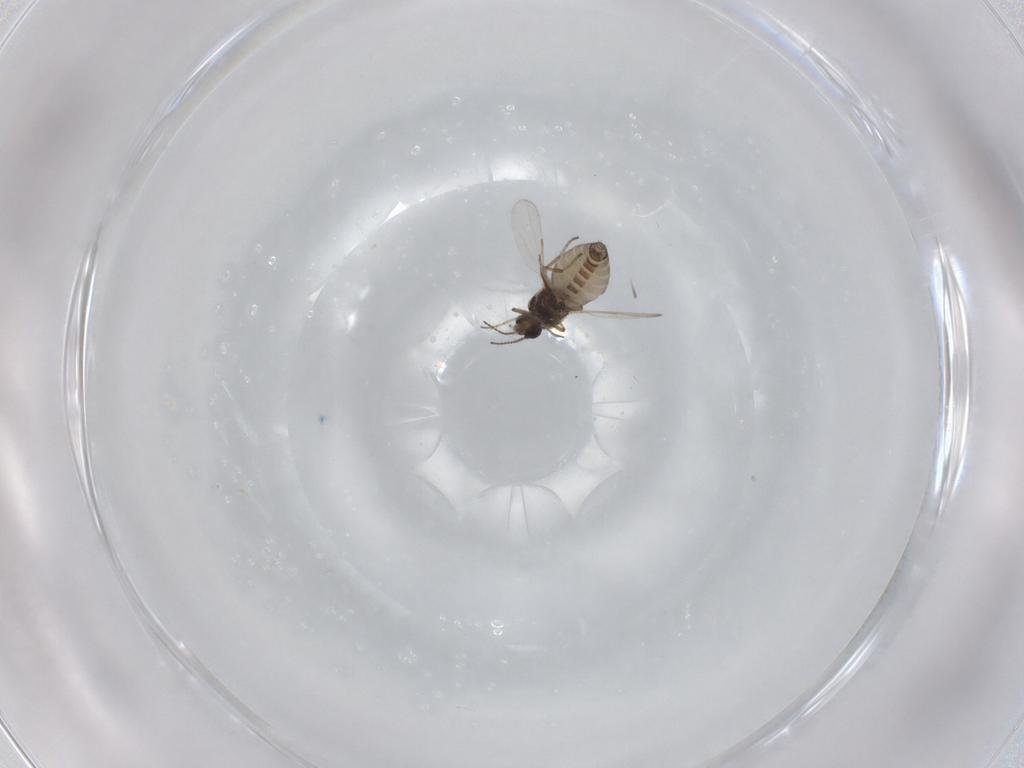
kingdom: Animalia
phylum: Arthropoda
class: Insecta
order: Diptera
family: Ceratopogonidae
